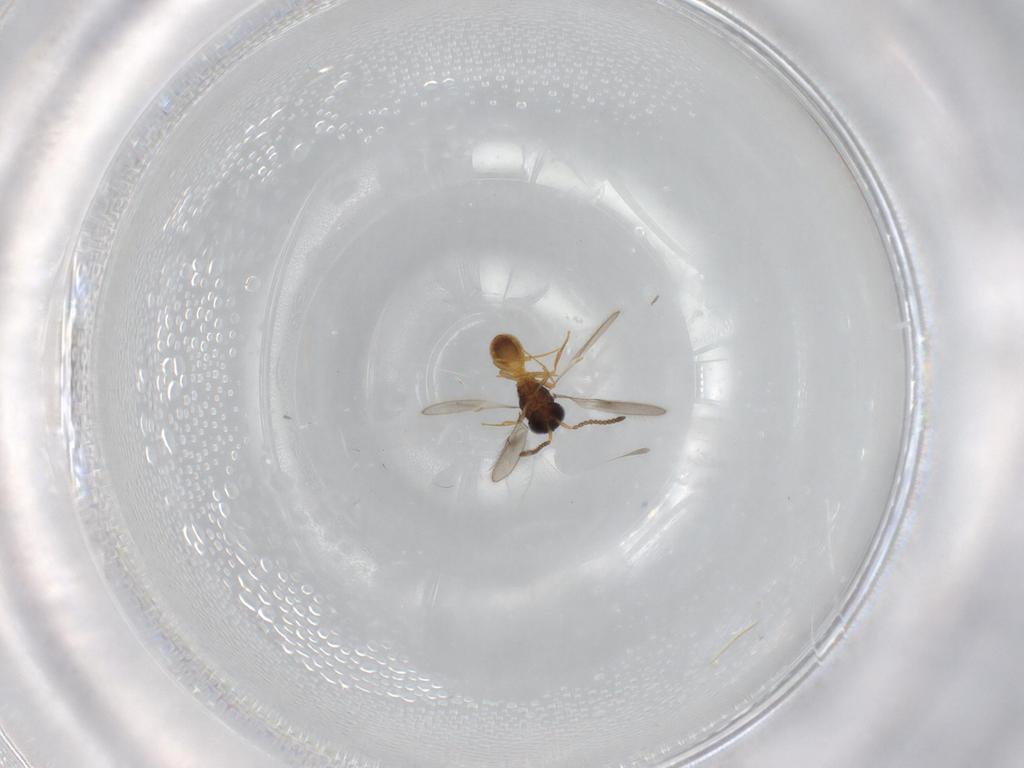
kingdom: Animalia
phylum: Arthropoda
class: Insecta
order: Hymenoptera
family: Scelionidae
